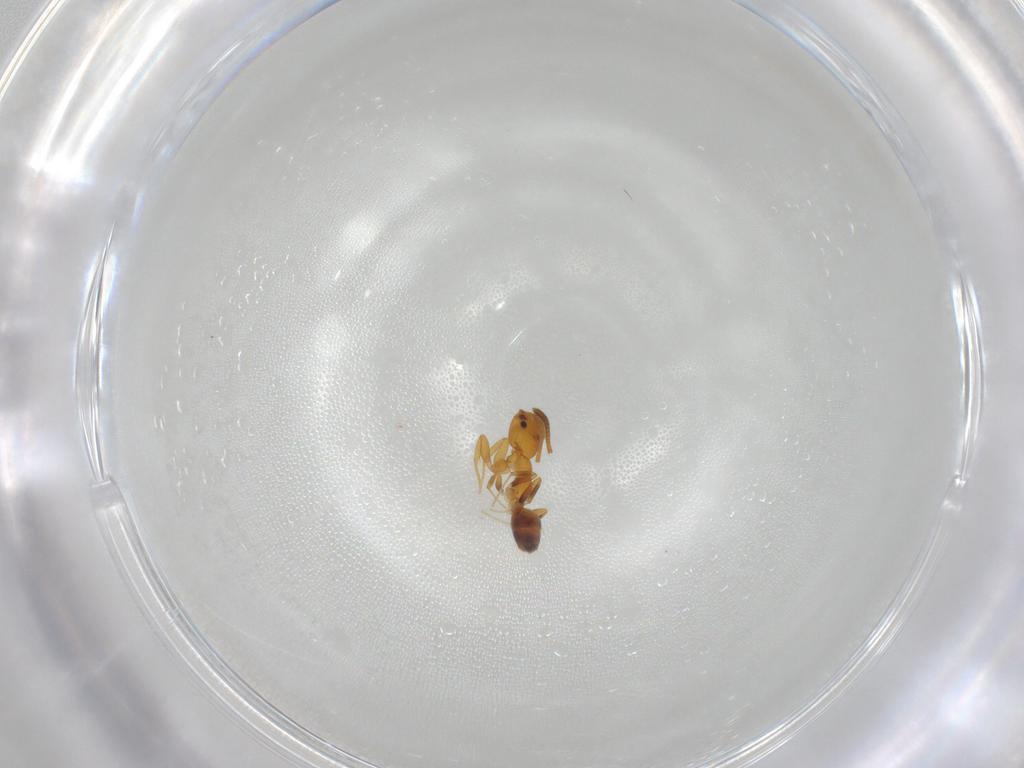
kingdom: Animalia
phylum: Arthropoda
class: Insecta
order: Hymenoptera
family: Formicidae
